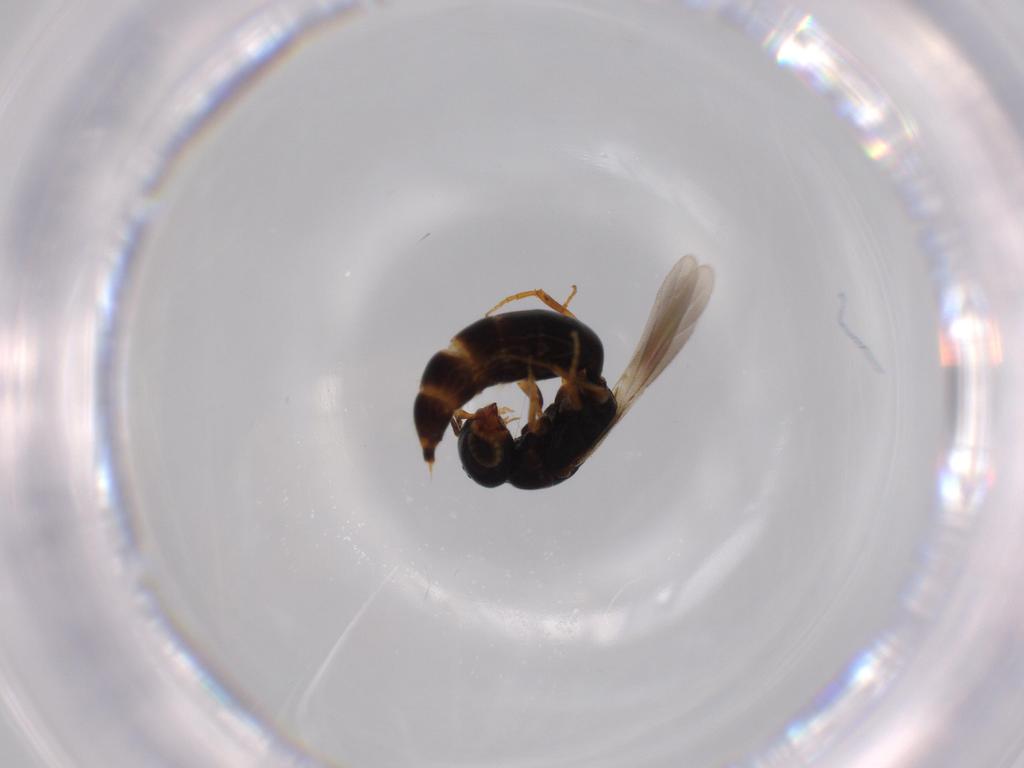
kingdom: Animalia
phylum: Arthropoda
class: Insecta
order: Hymenoptera
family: Bethylidae
